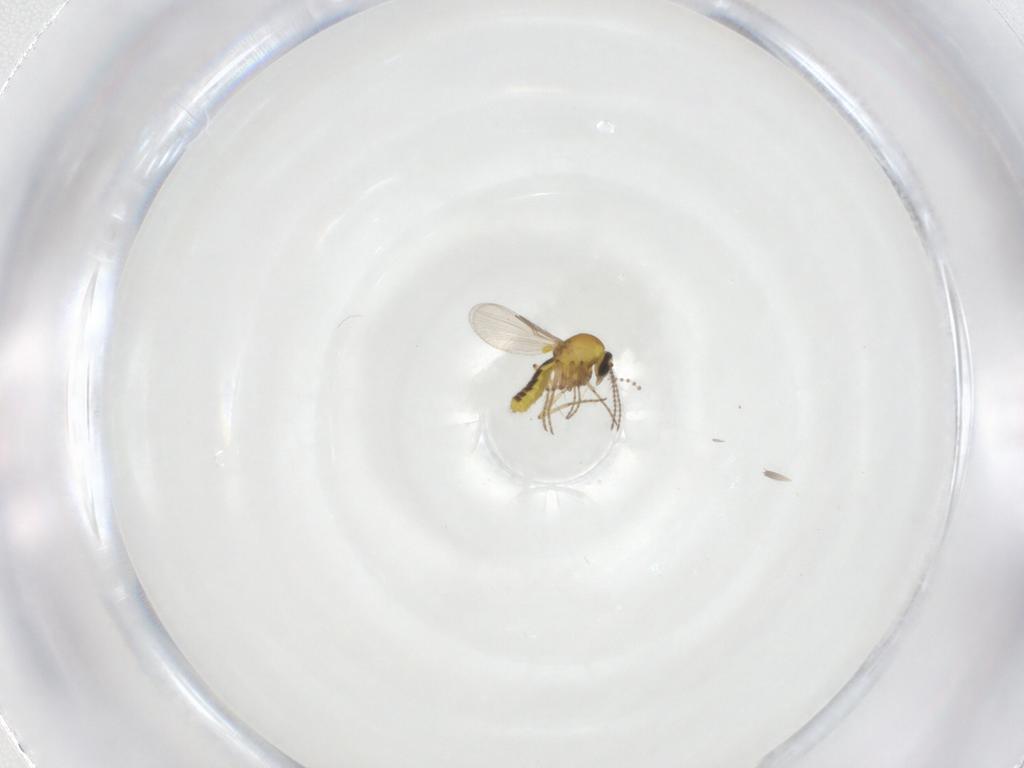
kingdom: Animalia
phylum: Arthropoda
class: Insecta
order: Diptera
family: Ceratopogonidae
